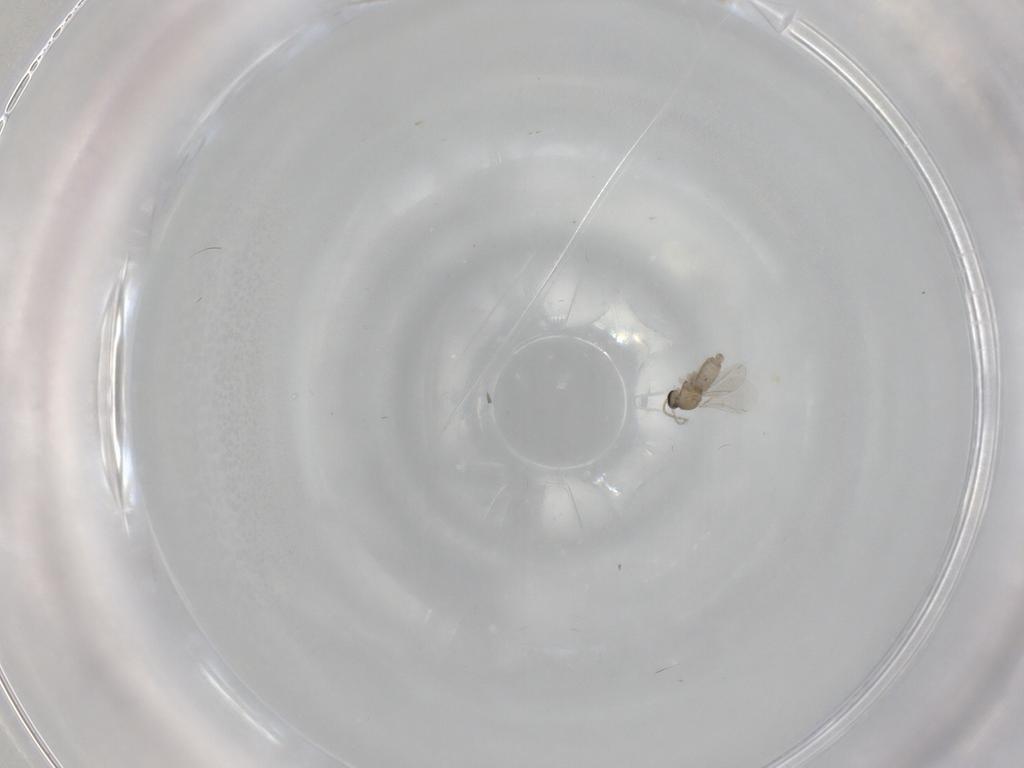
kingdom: Animalia
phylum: Arthropoda
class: Insecta
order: Diptera
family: Cecidomyiidae
